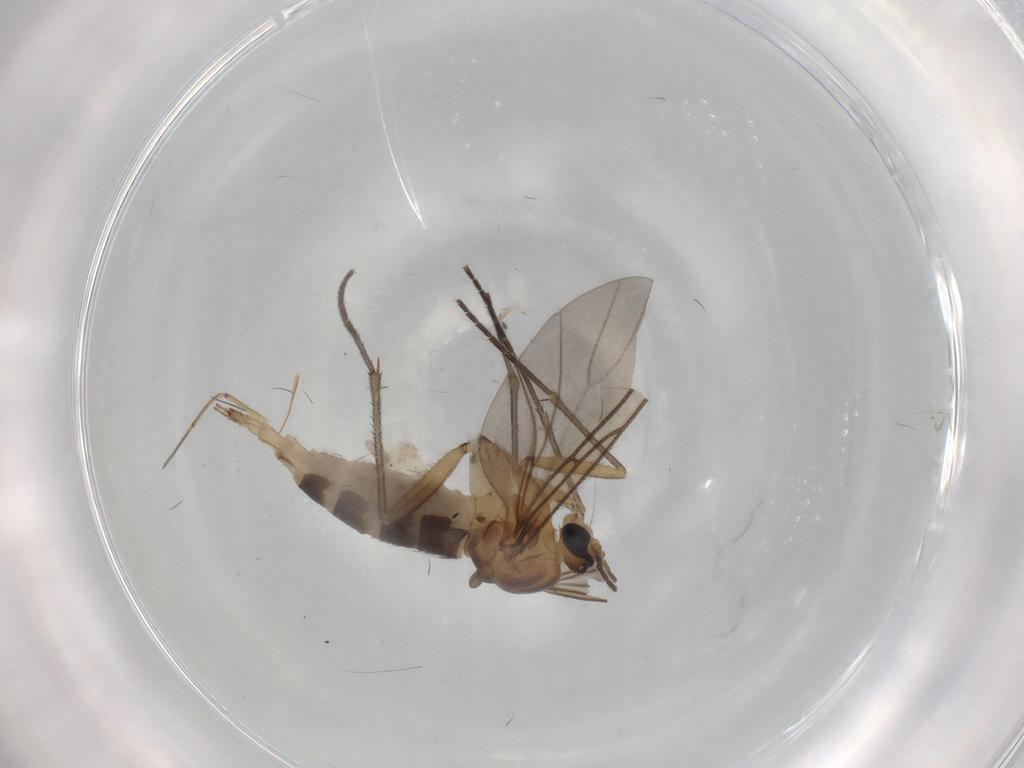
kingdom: Animalia
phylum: Arthropoda
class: Insecta
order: Diptera
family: Sciaridae
